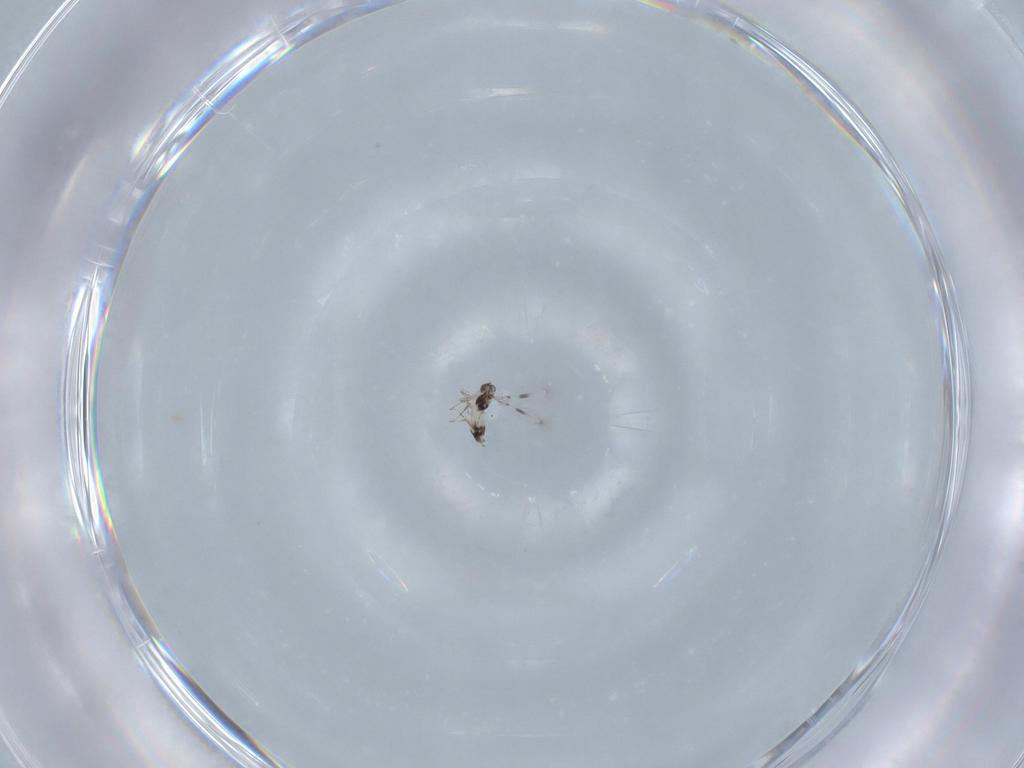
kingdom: Animalia
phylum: Arthropoda
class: Insecta
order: Hymenoptera
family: Mymaridae
